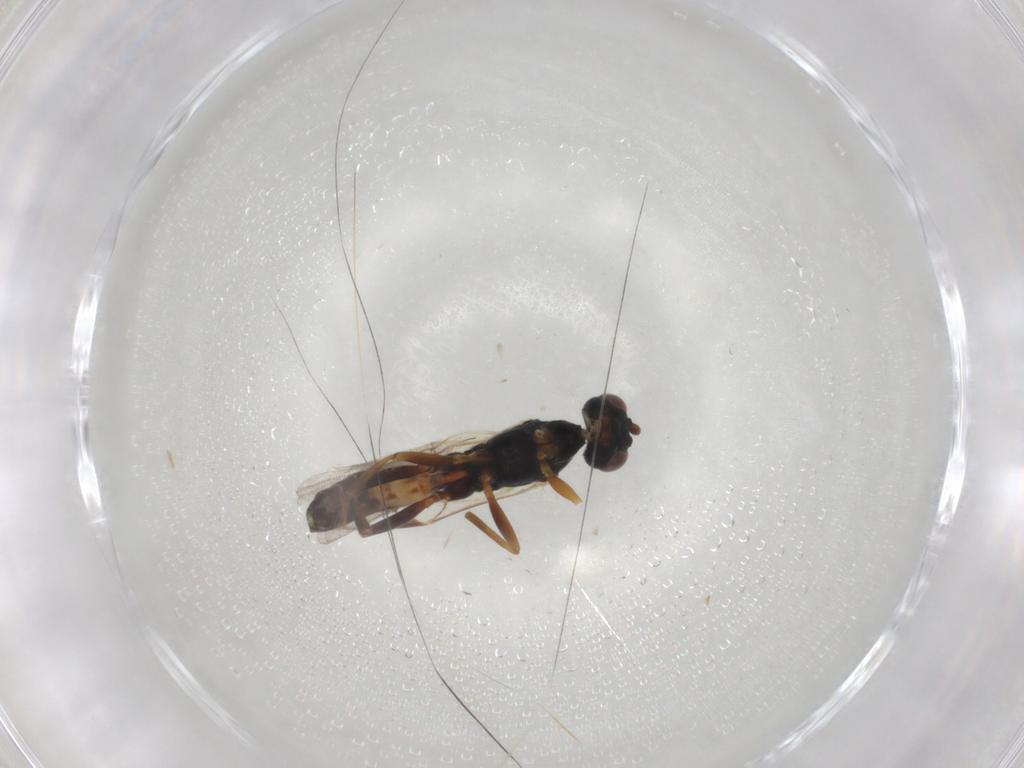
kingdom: Animalia
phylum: Arthropoda
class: Insecta
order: Hymenoptera
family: Ichneumonidae
